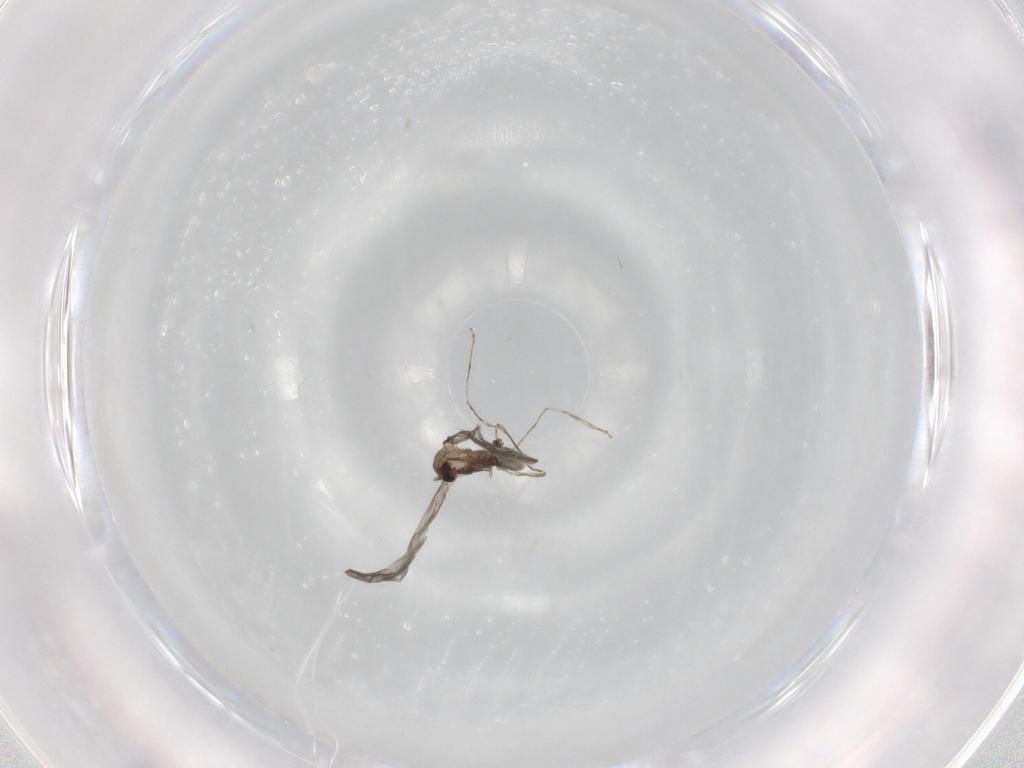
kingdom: Animalia
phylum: Arthropoda
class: Insecta
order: Diptera
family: Cecidomyiidae
